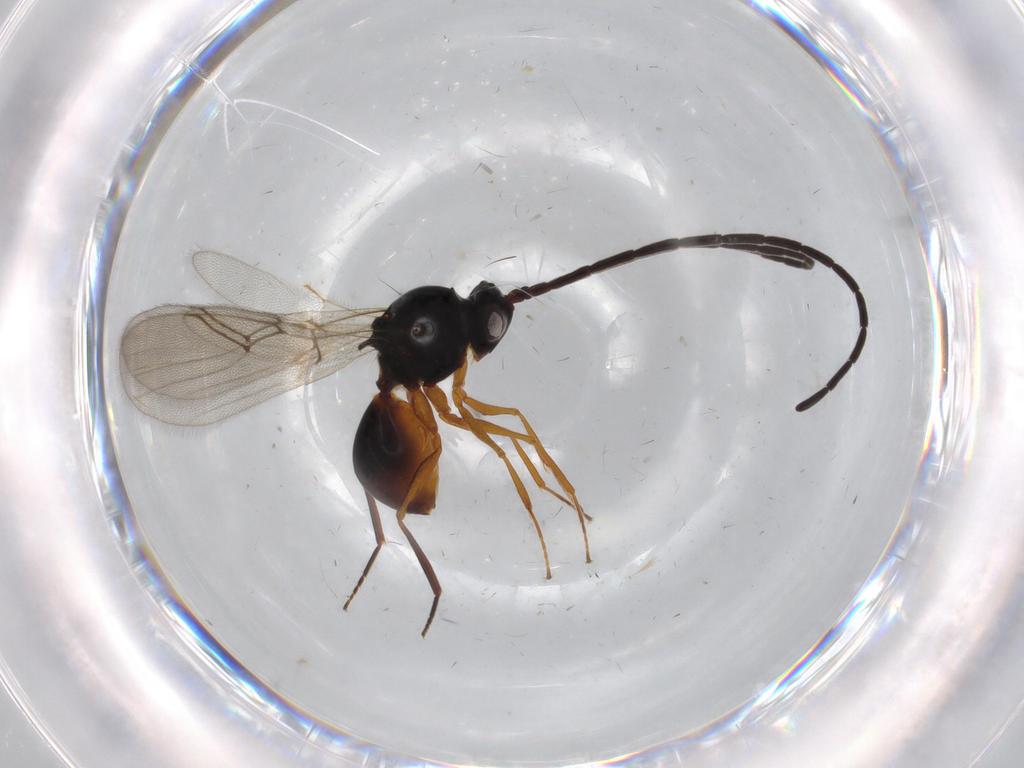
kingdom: Animalia
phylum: Arthropoda
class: Insecta
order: Hymenoptera
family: Figitidae
